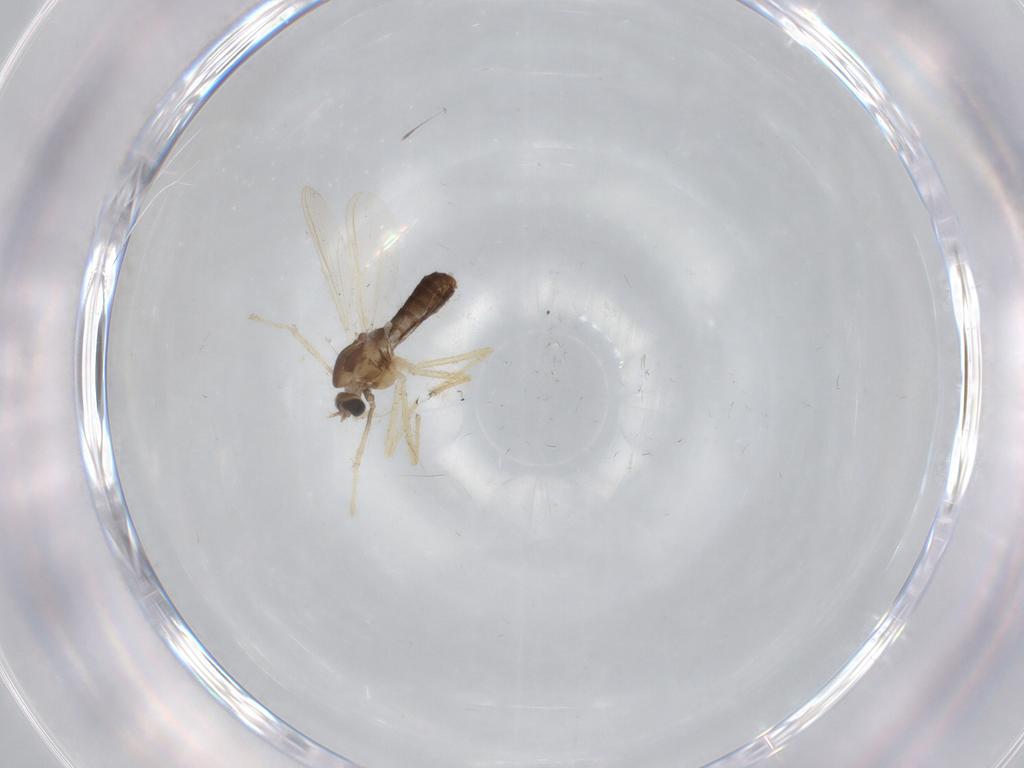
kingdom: Animalia
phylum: Arthropoda
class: Insecta
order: Diptera
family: Chironomidae
